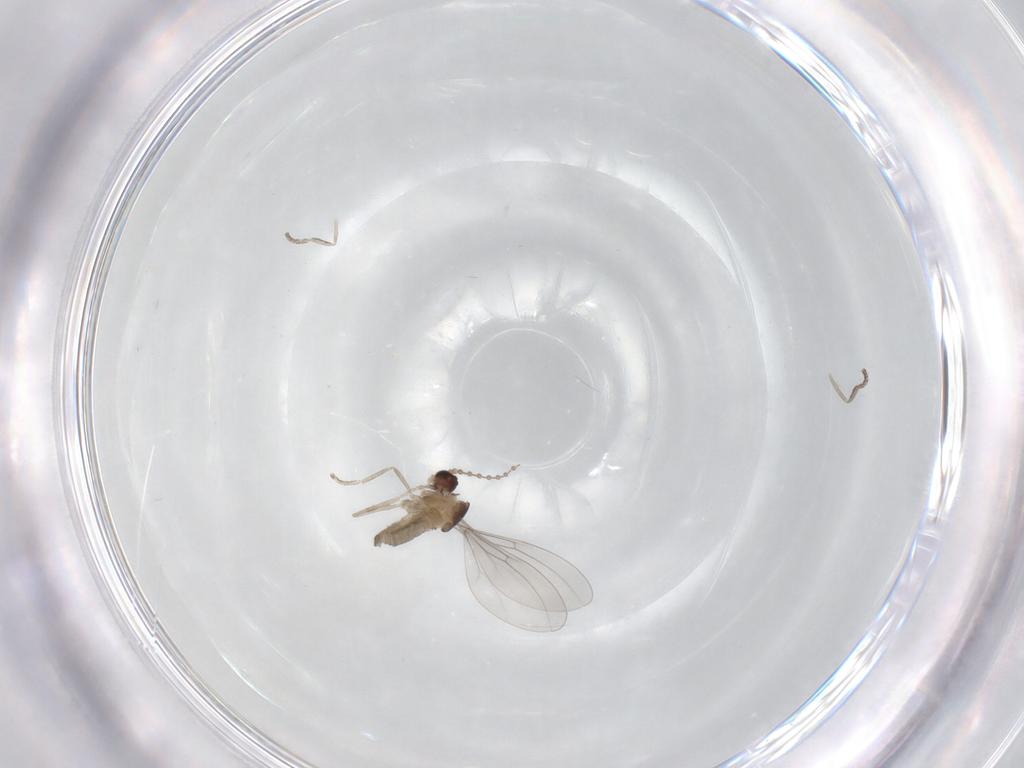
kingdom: Animalia
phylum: Arthropoda
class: Insecta
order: Diptera
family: Cecidomyiidae
